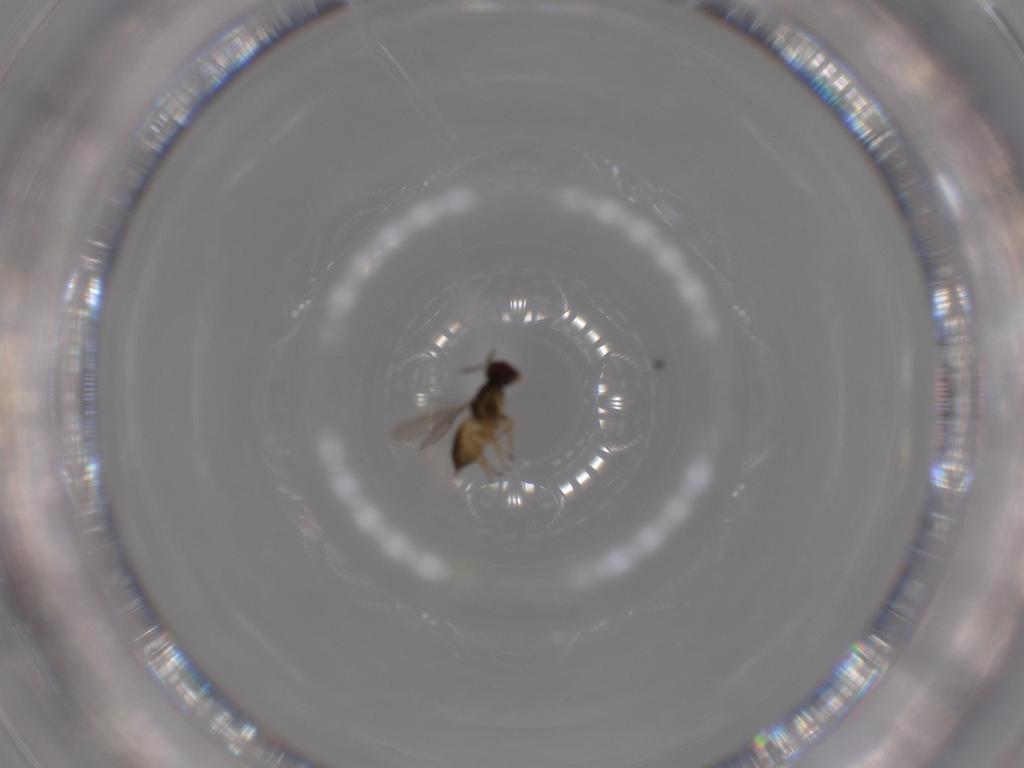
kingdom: Animalia
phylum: Arthropoda
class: Insecta
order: Hymenoptera
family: Eulophidae
